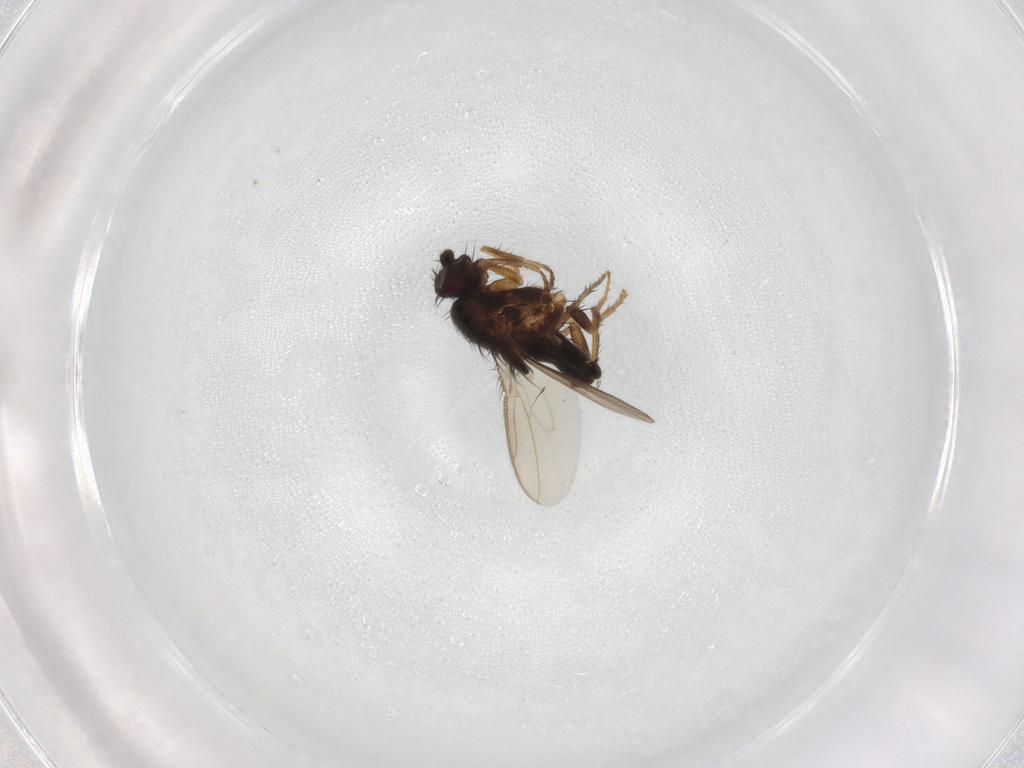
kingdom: Animalia
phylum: Arthropoda
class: Insecta
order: Diptera
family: Sphaeroceridae
